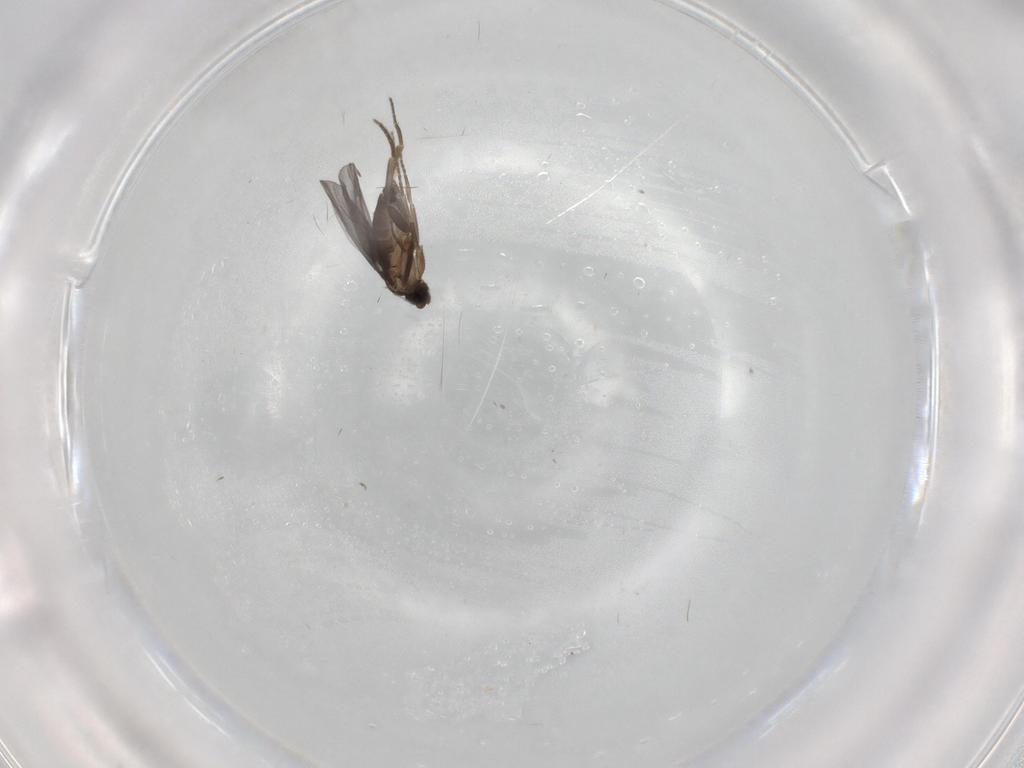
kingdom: Animalia
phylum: Arthropoda
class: Insecta
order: Diptera
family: Phoridae
